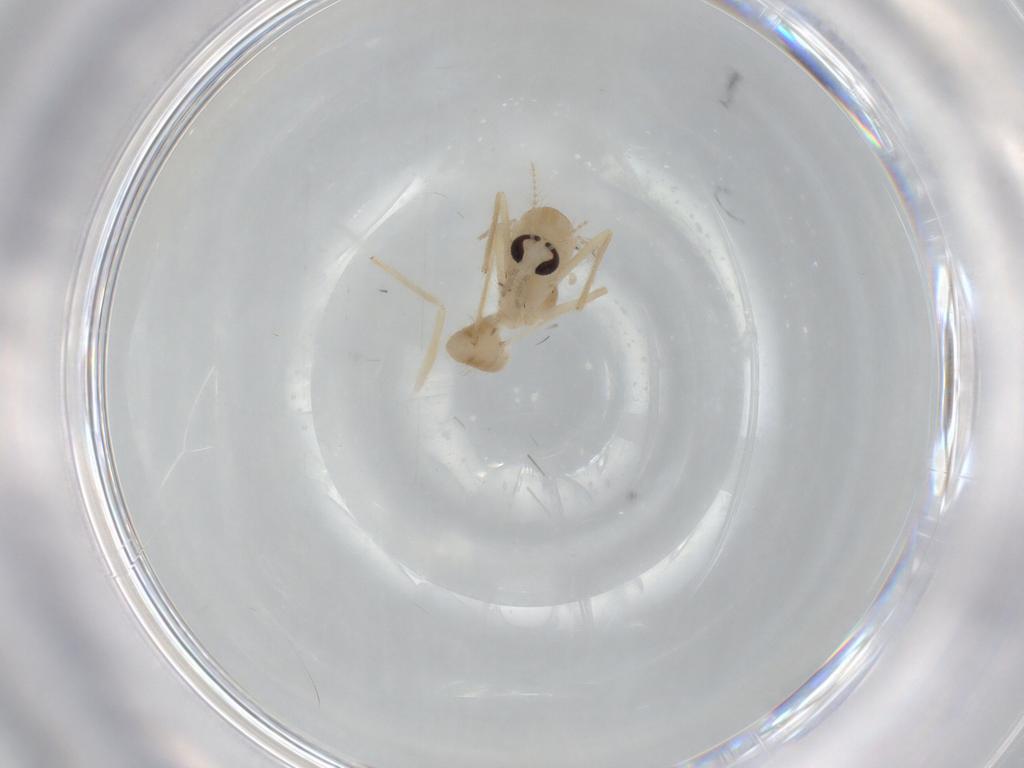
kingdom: Animalia
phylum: Arthropoda
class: Insecta
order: Diptera
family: Chironomidae
